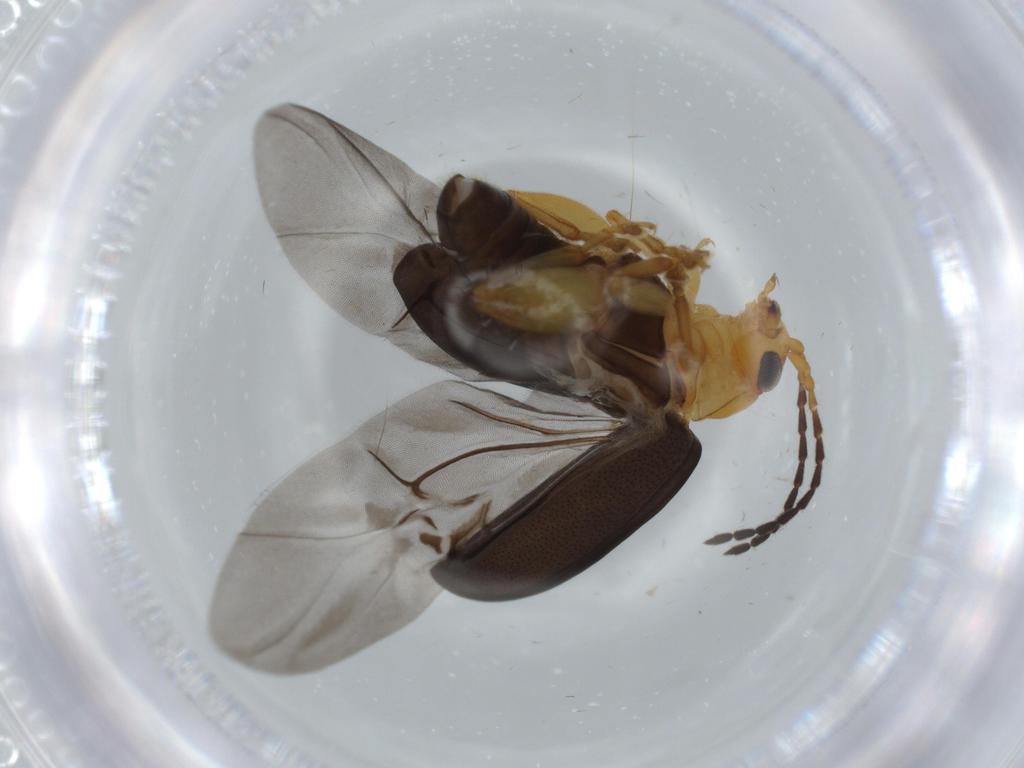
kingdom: Animalia
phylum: Arthropoda
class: Insecta
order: Coleoptera
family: Chrysomelidae
